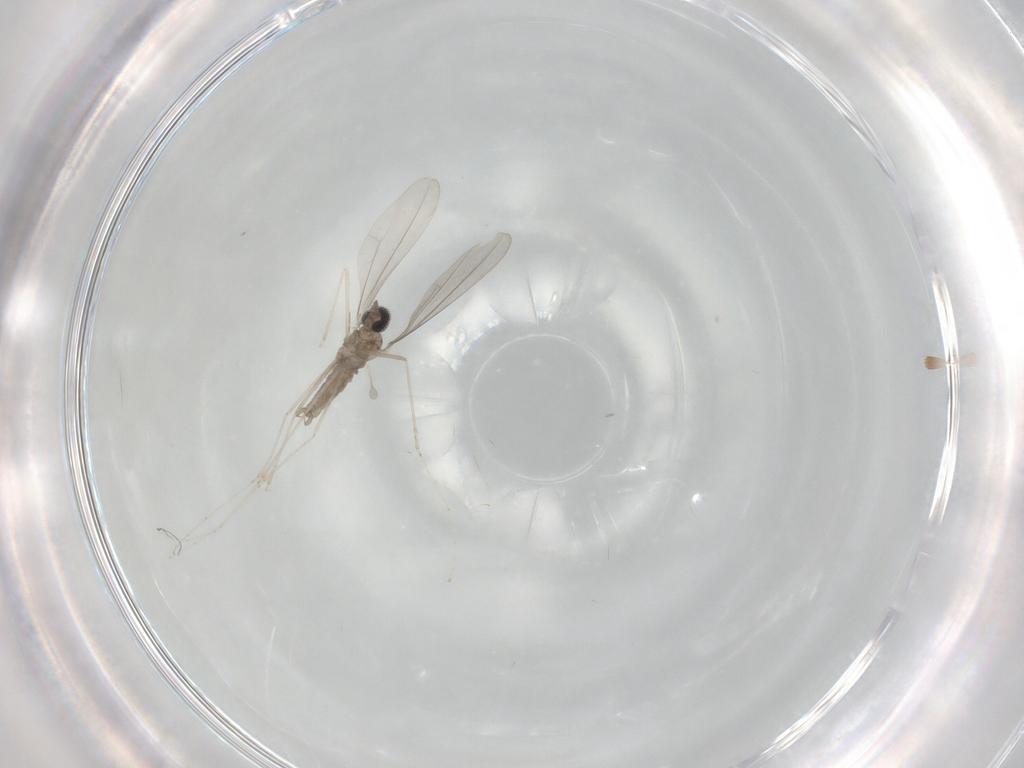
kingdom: Animalia
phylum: Arthropoda
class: Insecta
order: Diptera
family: Cecidomyiidae
